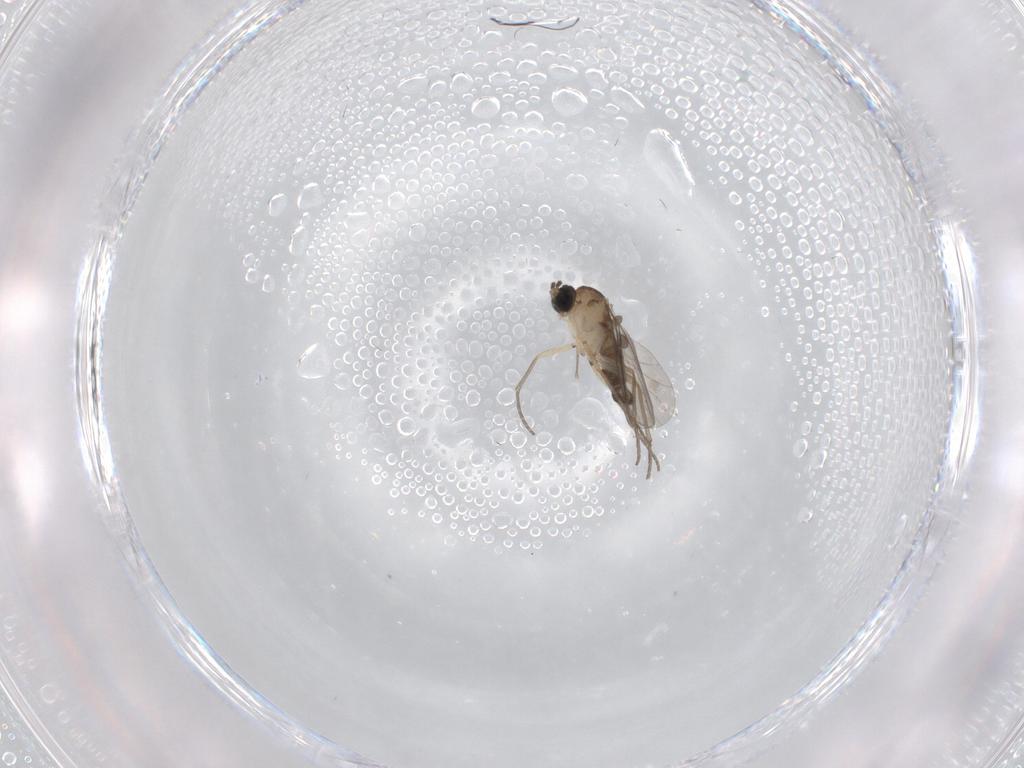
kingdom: Animalia
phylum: Arthropoda
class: Insecta
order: Diptera
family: Sciaridae
